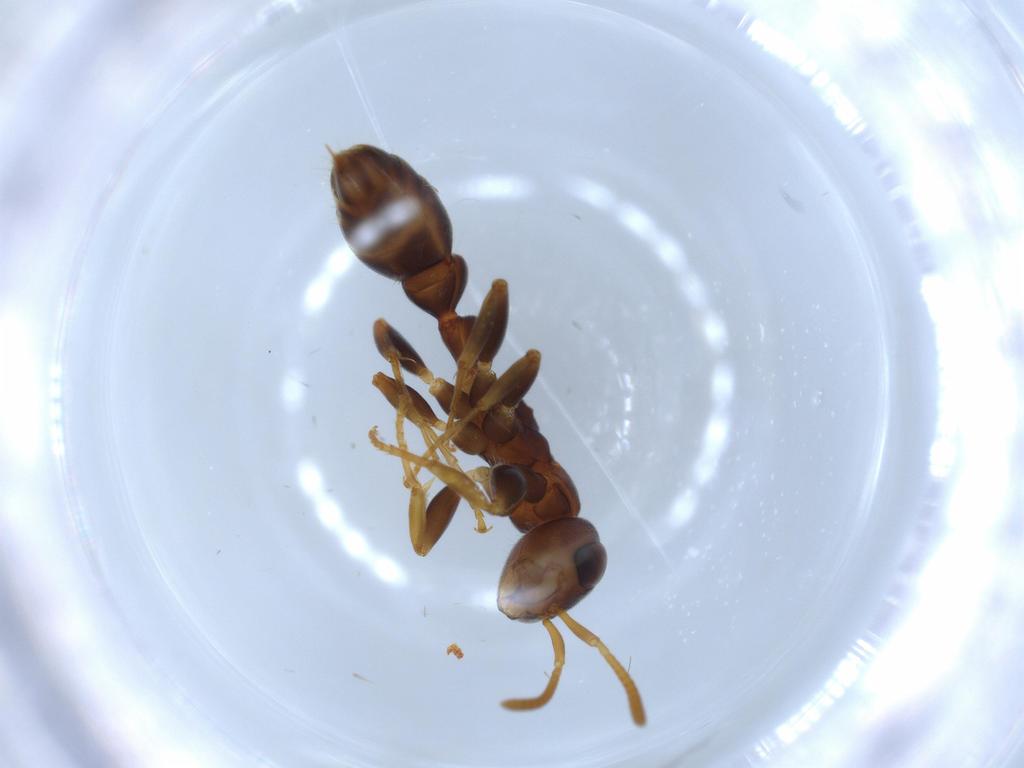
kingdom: Animalia
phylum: Arthropoda
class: Insecta
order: Hymenoptera
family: Formicidae
